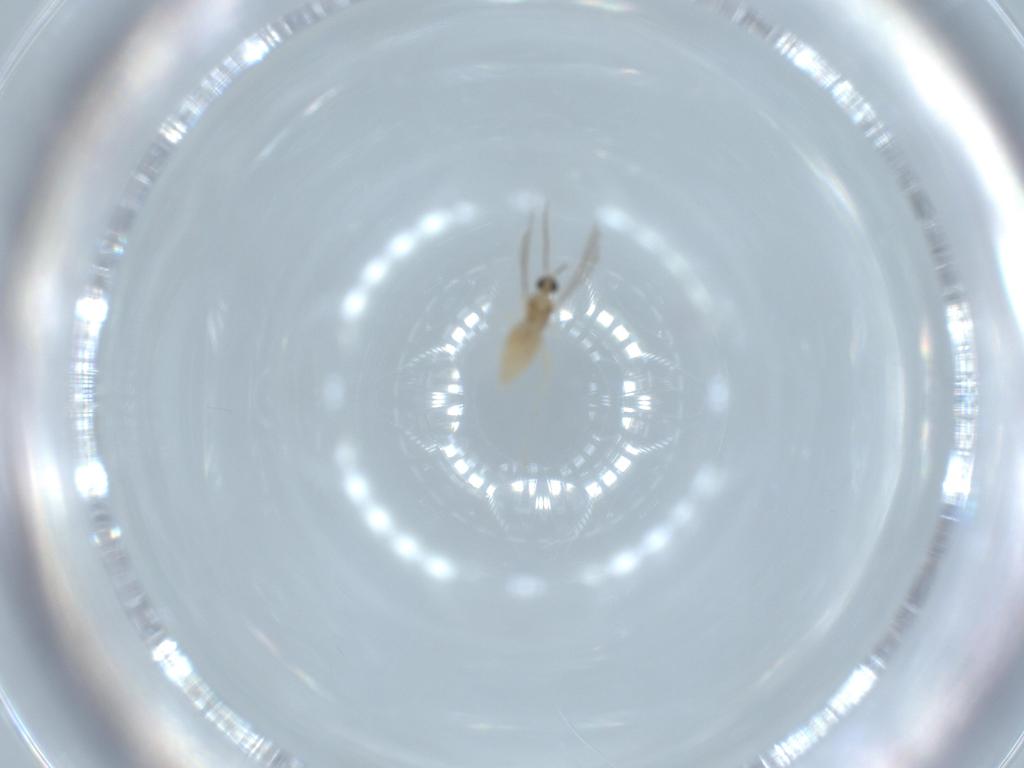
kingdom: Animalia
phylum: Arthropoda
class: Insecta
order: Diptera
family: Cecidomyiidae
